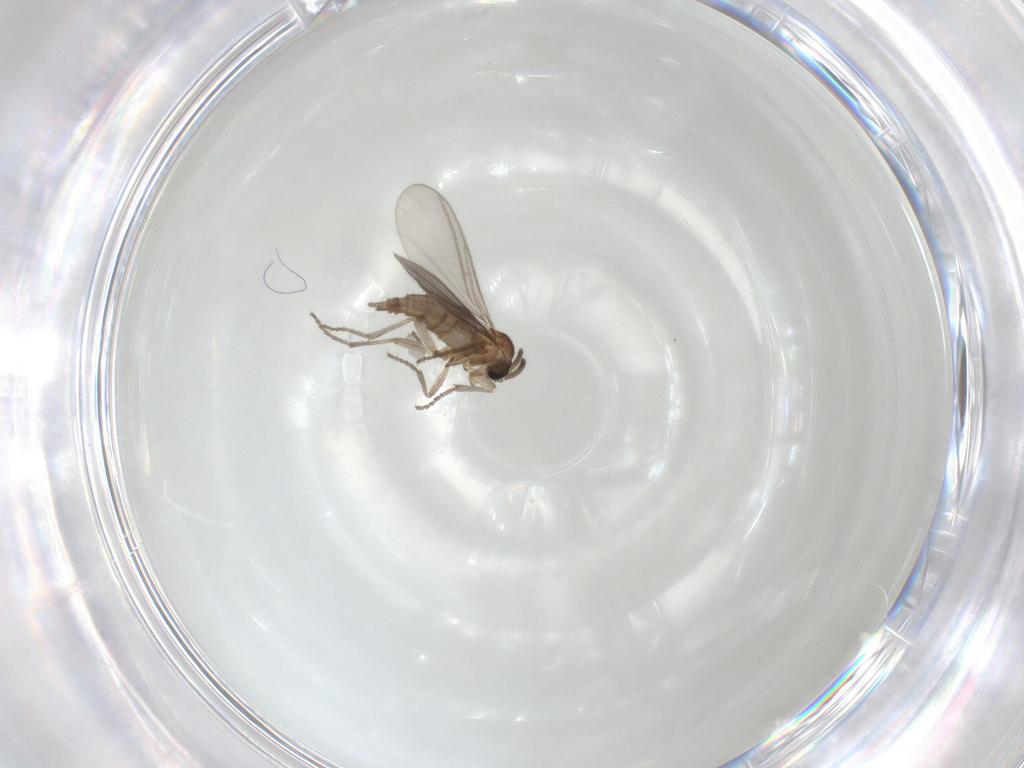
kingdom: Animalia
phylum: Arthropoda
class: Insecta
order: Diptera
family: Sciaridae
